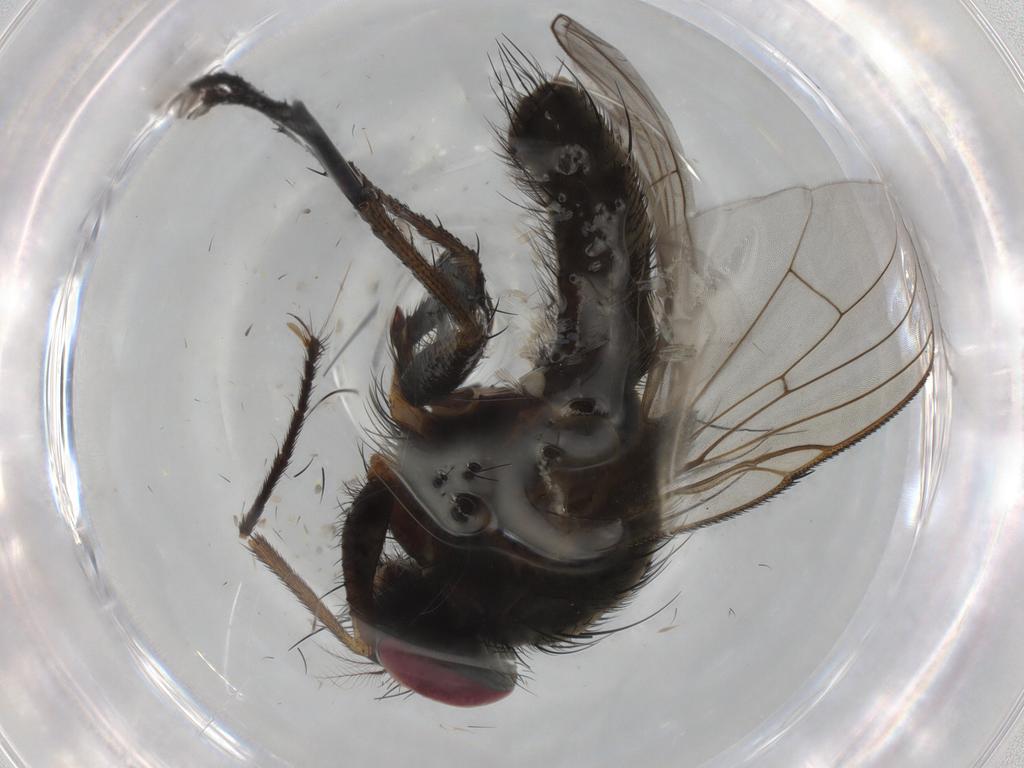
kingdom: Animalia
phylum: Arthropoda
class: Insecta
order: Diptera
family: Muscidae
